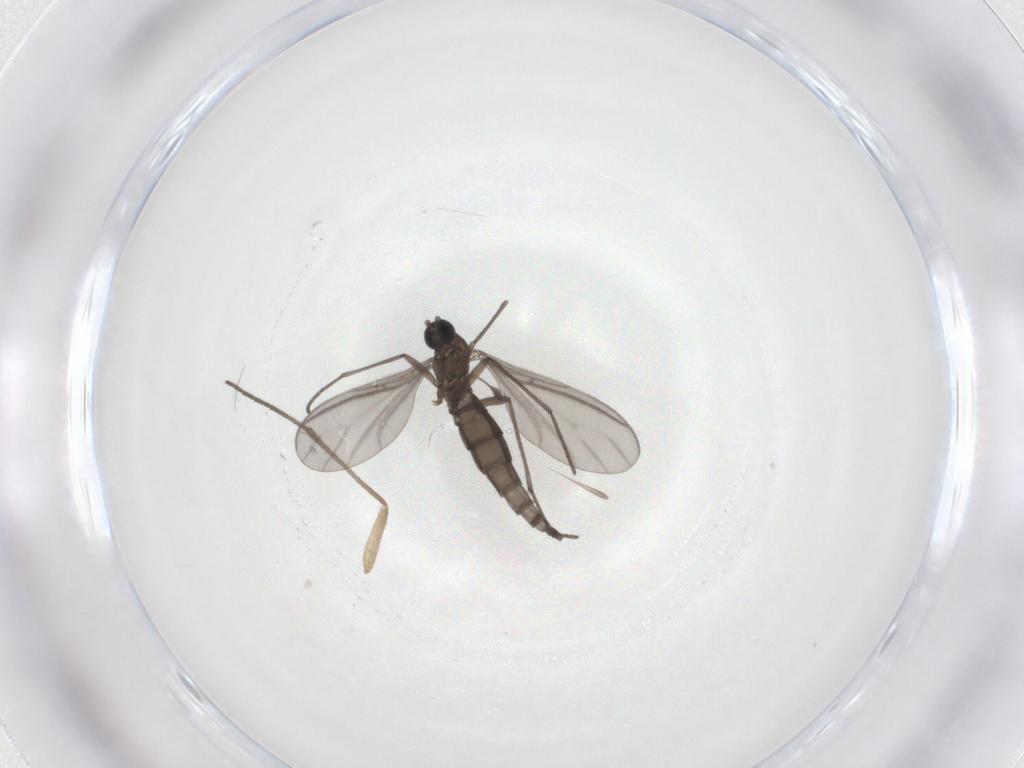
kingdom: Animalia
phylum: Arthropoda
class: Insecta
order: Diptera
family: Sciaridae
